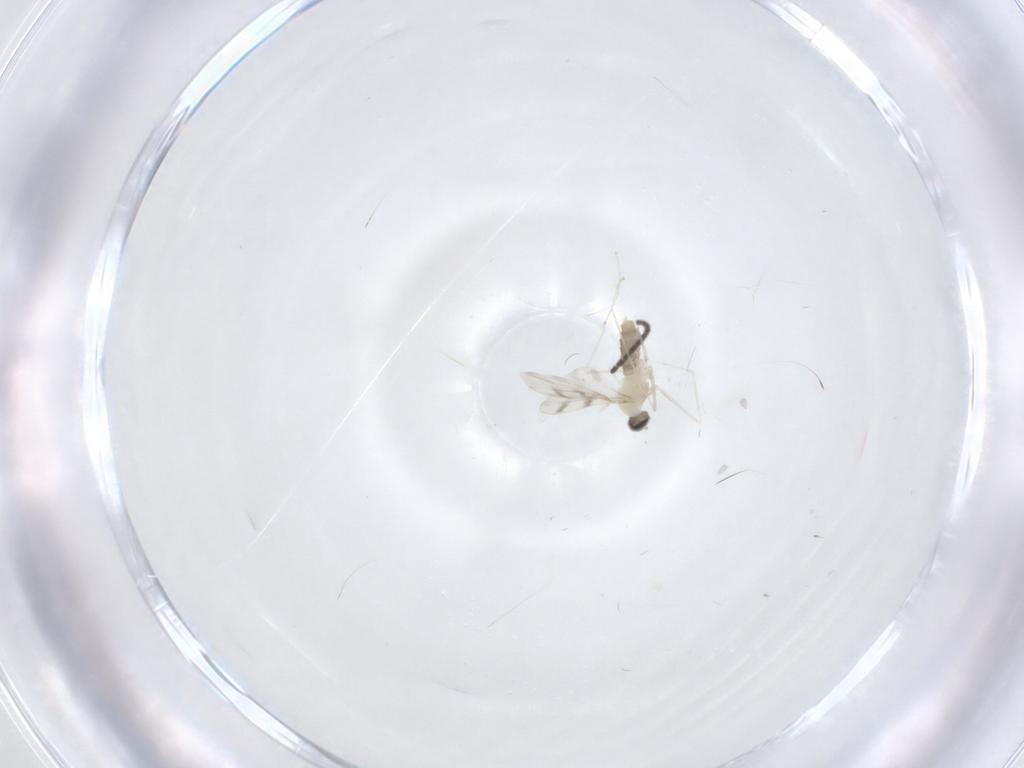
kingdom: Animalia
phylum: Arthropoda
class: Insecta
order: Diptera
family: Cecidomyiidae
